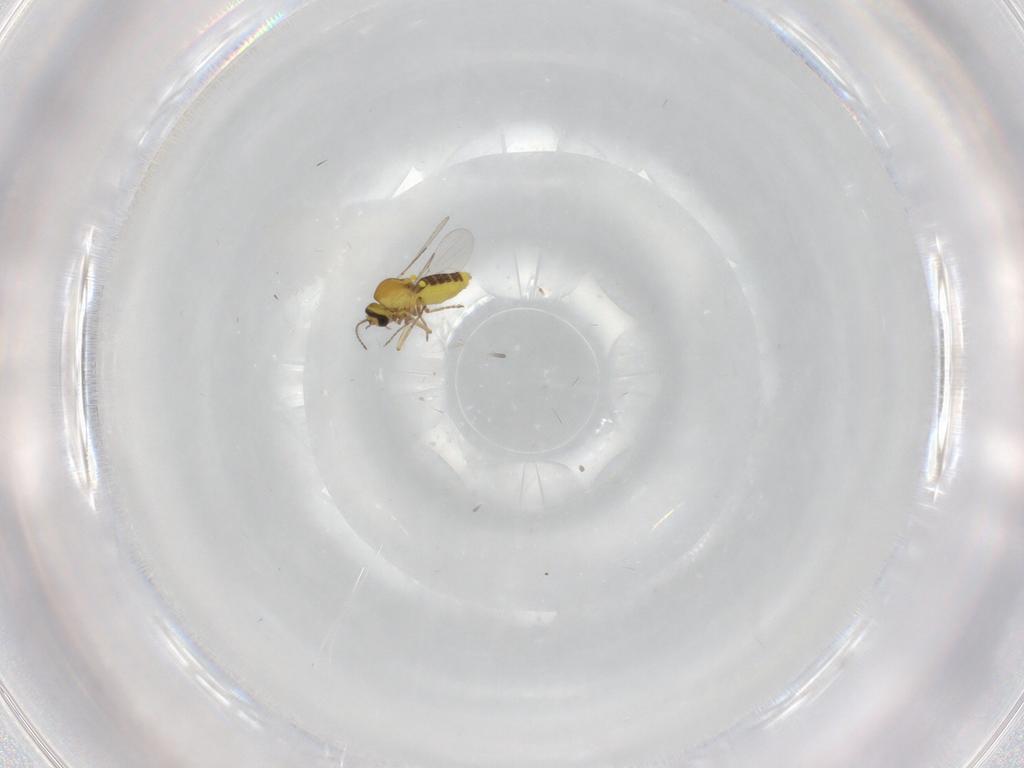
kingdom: Animalia
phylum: Arthropoda
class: Insecta
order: Diptera
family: Ceratopogonidae
